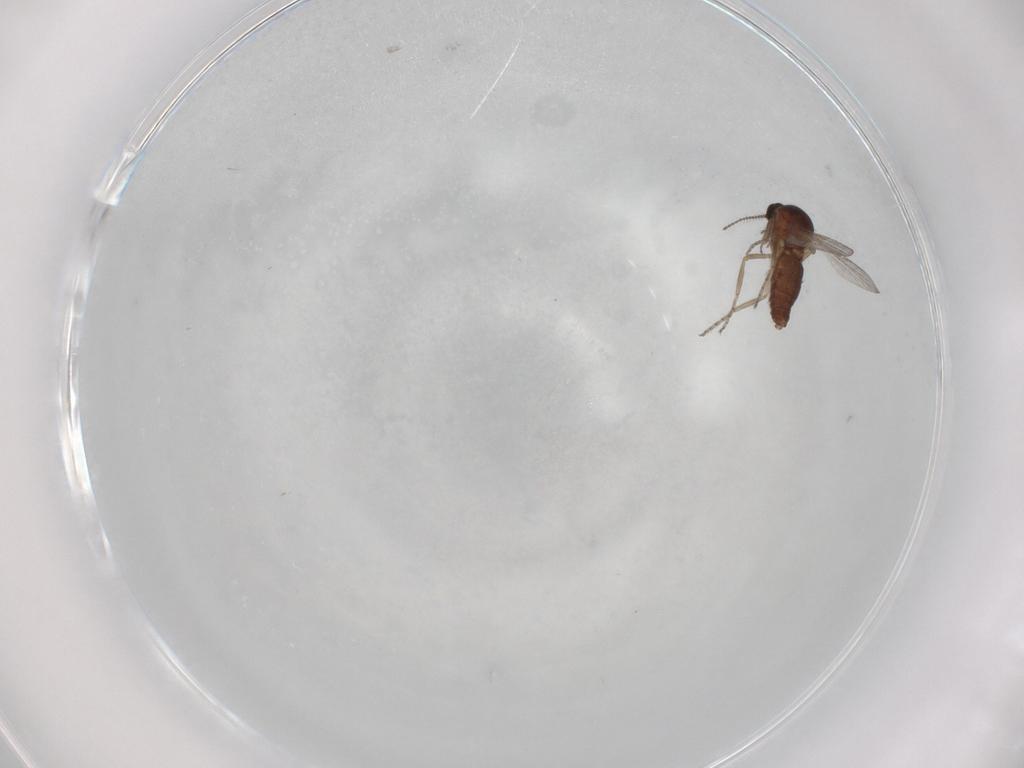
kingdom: Animalia
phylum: Arthropoda
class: Insecta
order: Diptera
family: Ceratopogonidae
